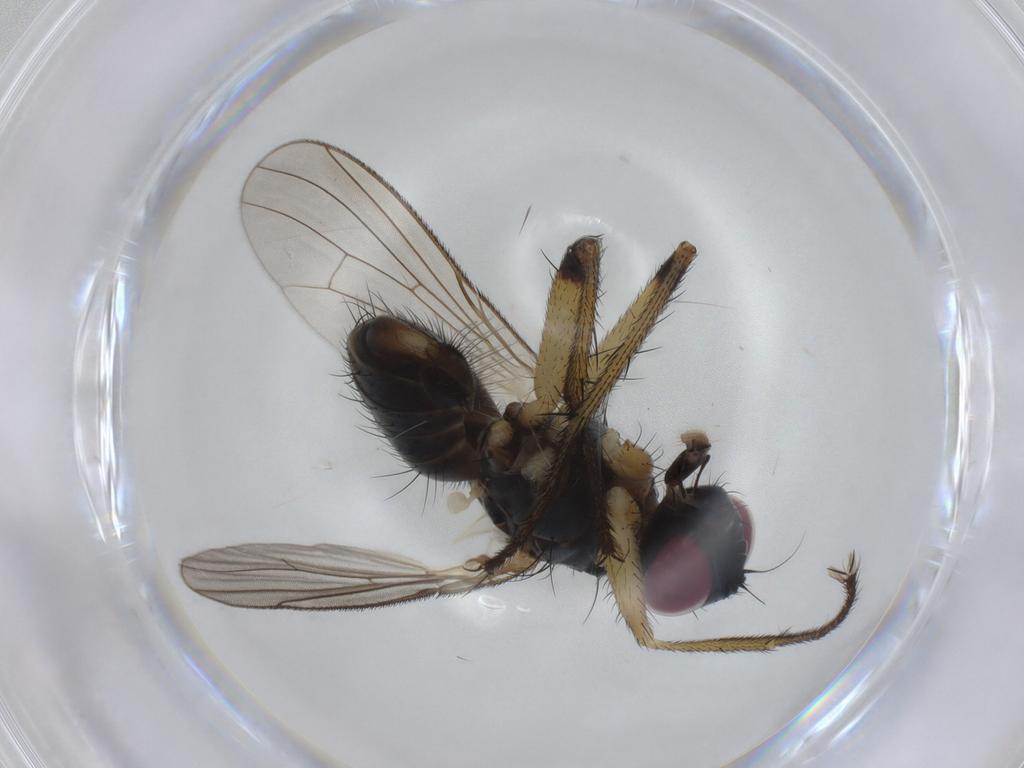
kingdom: Animalia
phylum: Arthropoda
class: Insecta
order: Diptera
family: Muscidae
